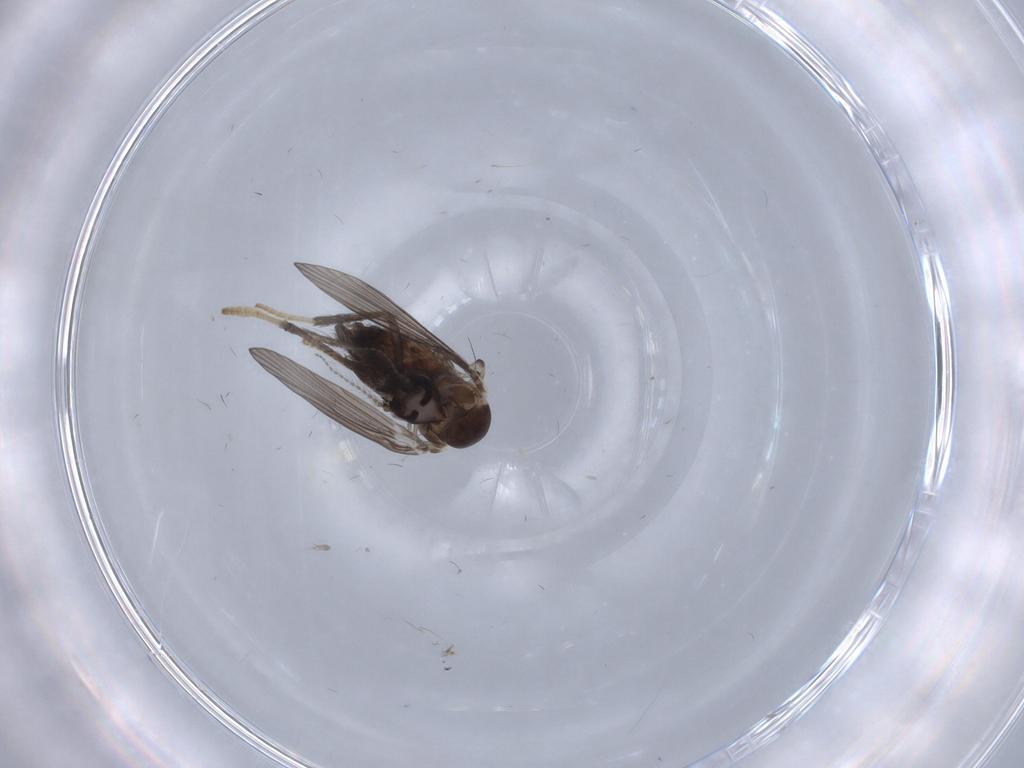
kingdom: Animalia
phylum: Arthropoda
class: Insecta
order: Diptera
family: Psychodidae
